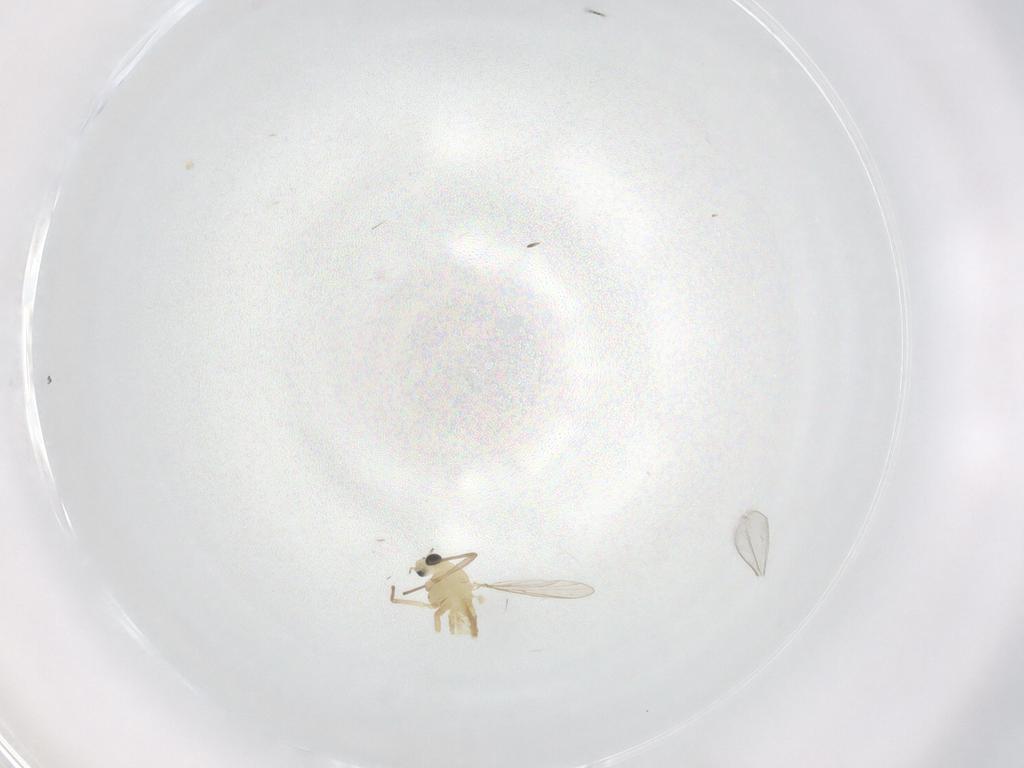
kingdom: Animalia
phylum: Arthropoda
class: Insecta
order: Diptera
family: Chironomidae
